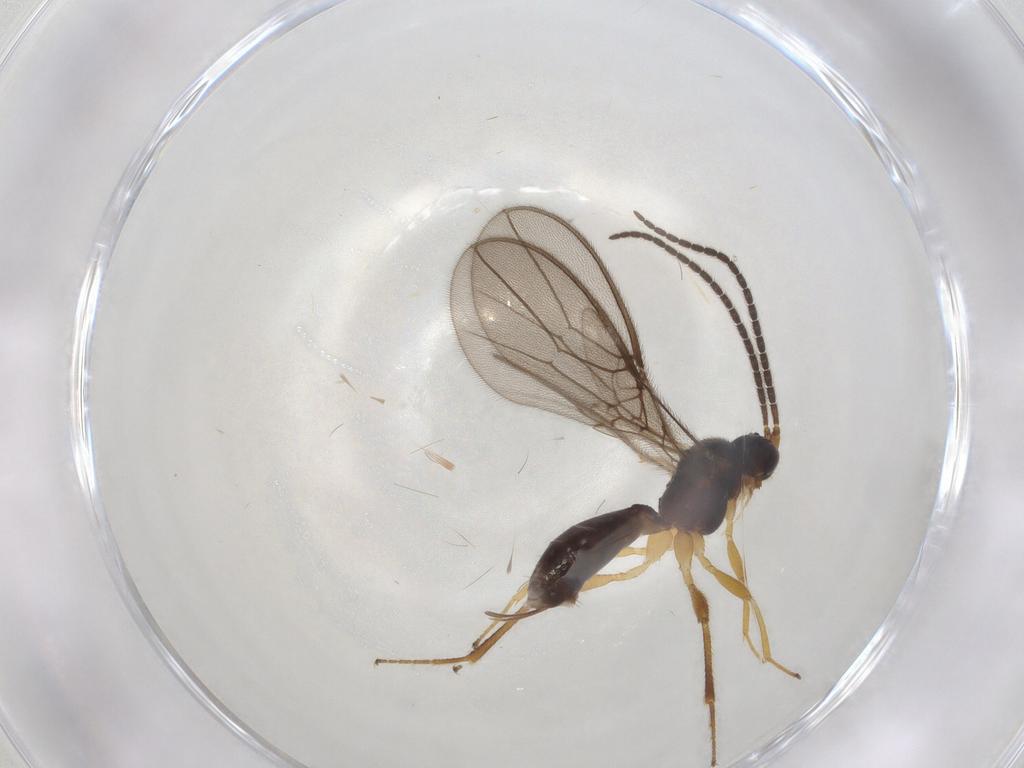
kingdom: Animalia
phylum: Arthropoda
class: Insecta
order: Hymenoptera
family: Braconidae
